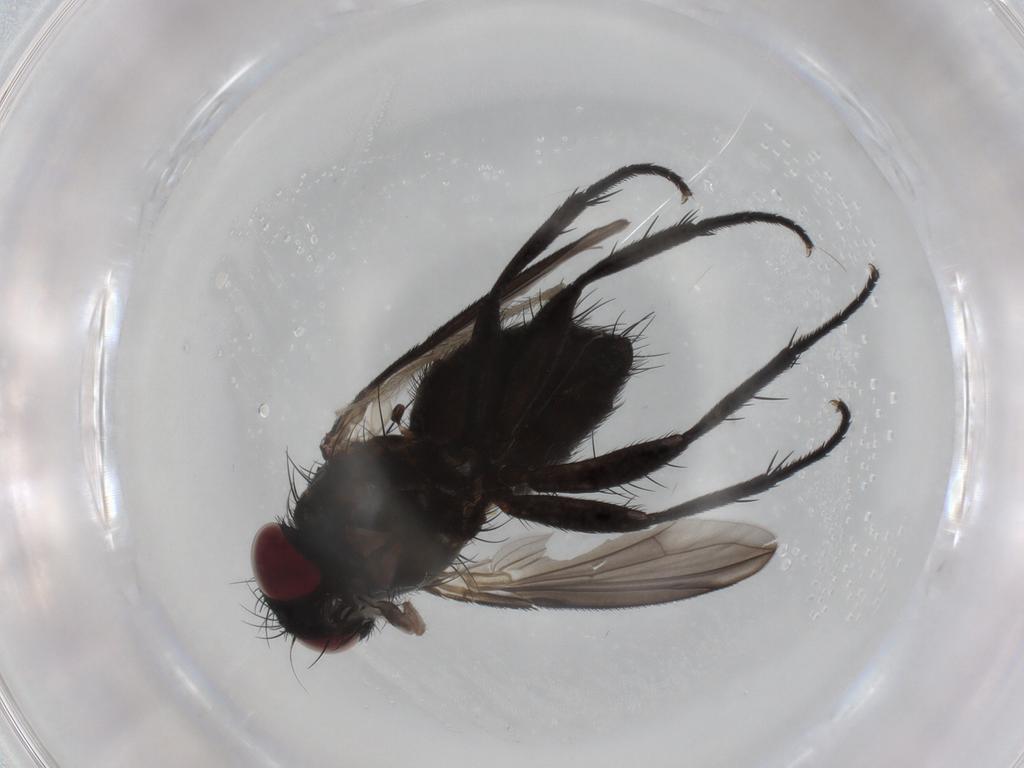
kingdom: Animalia
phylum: Arthropoda
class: Insecta
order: Diptera
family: Calliphoridae
